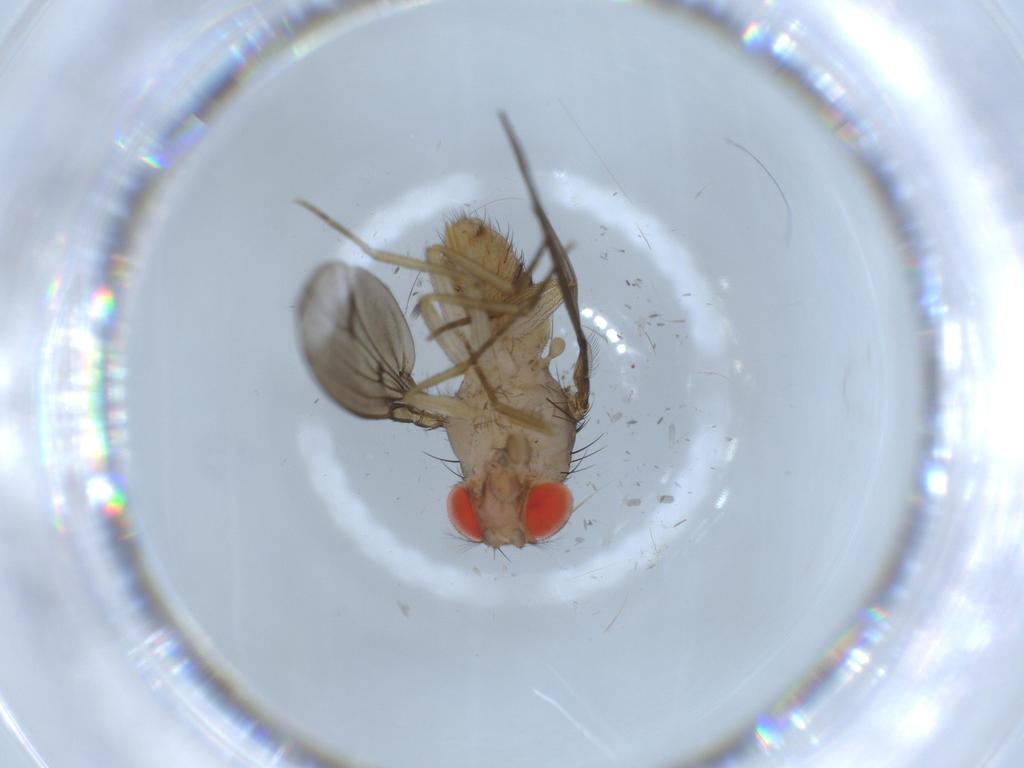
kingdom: Animalia
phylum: Arthropoda
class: Insecta
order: Diptera
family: Drosophilidae
